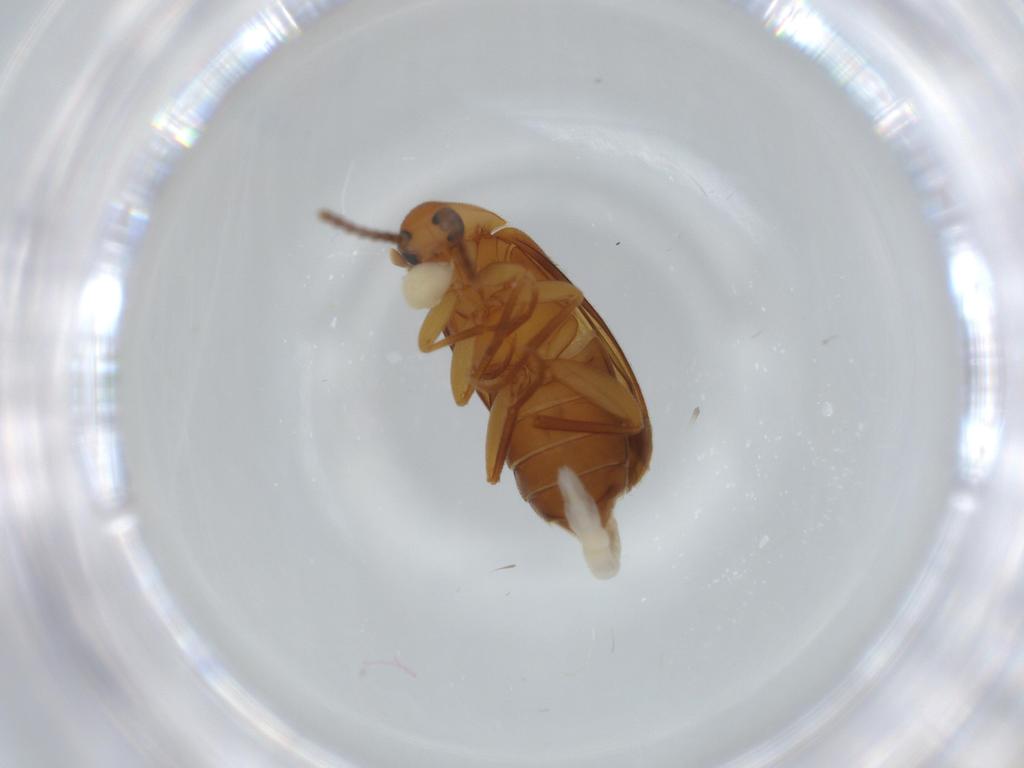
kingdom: Animalia
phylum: Arthropoda
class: Insecta
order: Coleoptera
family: Scraptiidae
